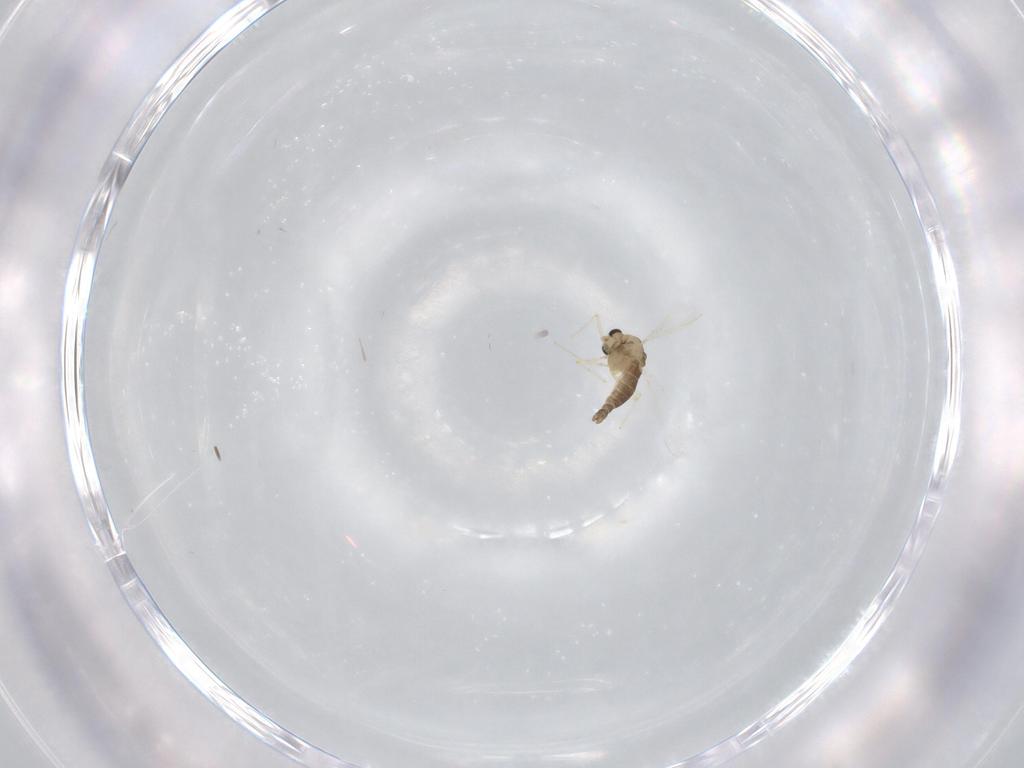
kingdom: Animalia
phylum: Arthropoda
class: Insecta
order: Diptera
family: Chironomidae
